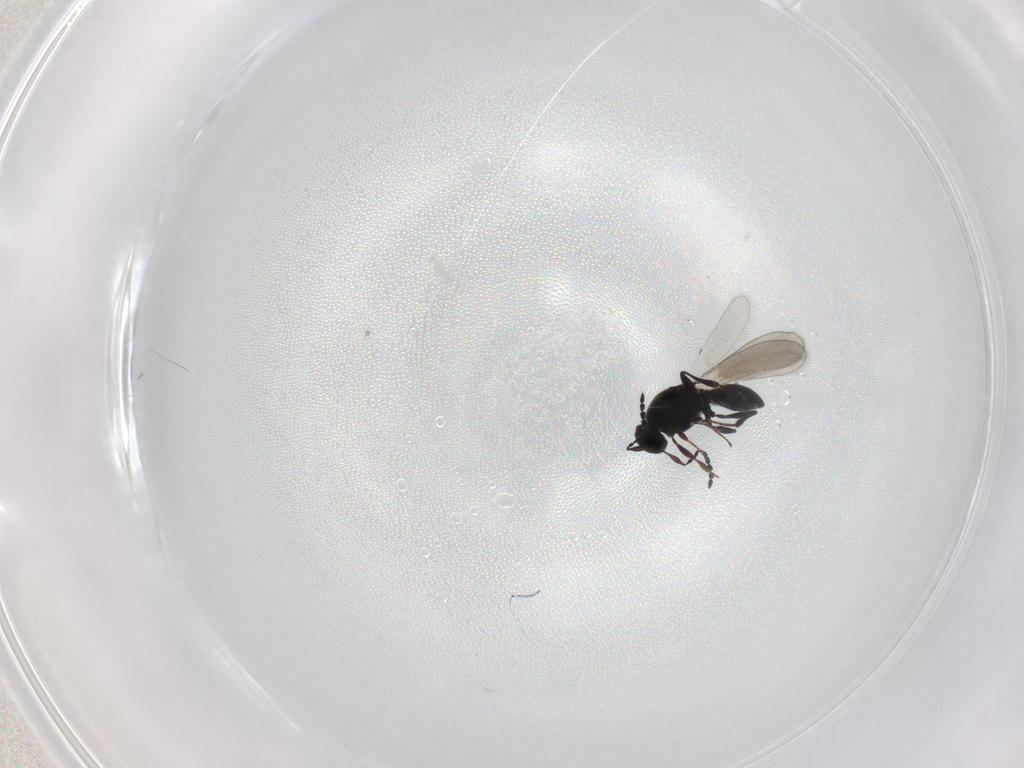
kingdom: Animalia
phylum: Arthropoda
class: Insecta
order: Hymenoptera
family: Platygastridae
